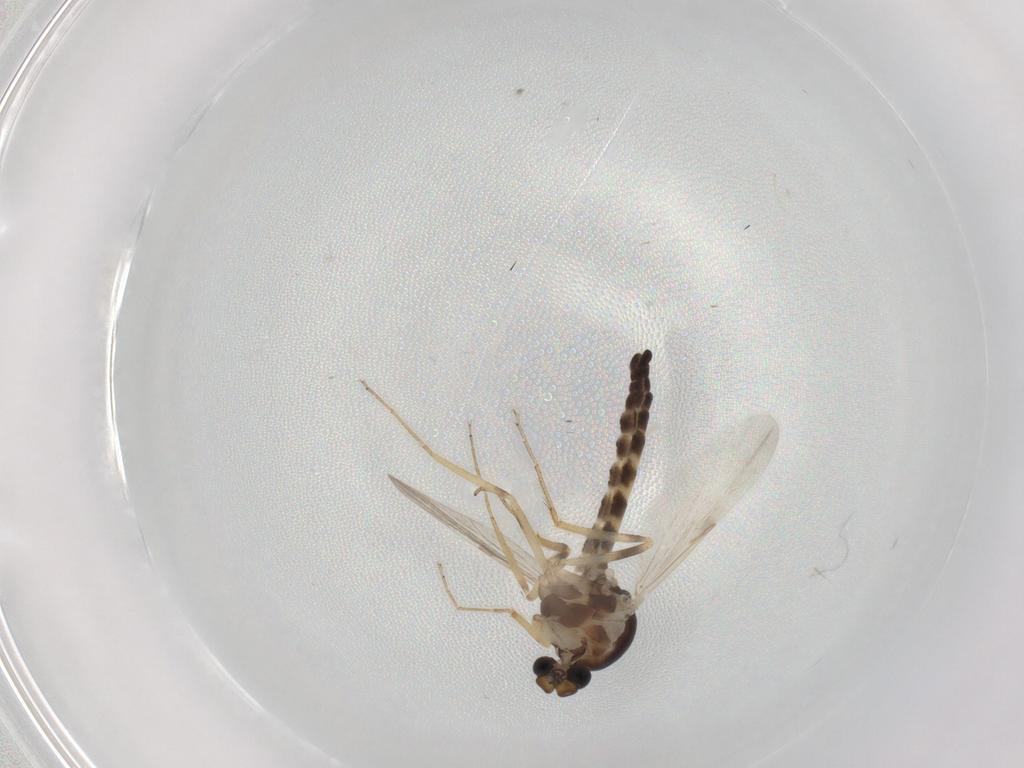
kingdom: Animalia
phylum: Arthropoda
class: Insecta
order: Diptera
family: Ceratopogonidae
